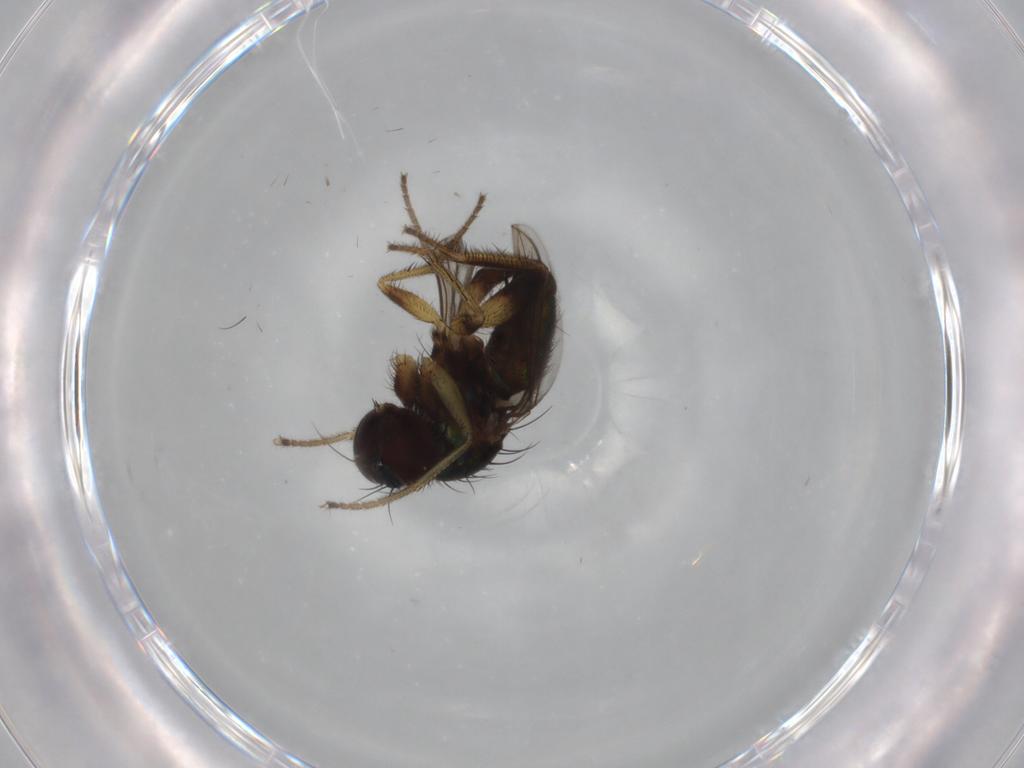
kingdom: Animalia
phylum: Arthropoda
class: Insecta
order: Diptera
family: Dolichopodidae
